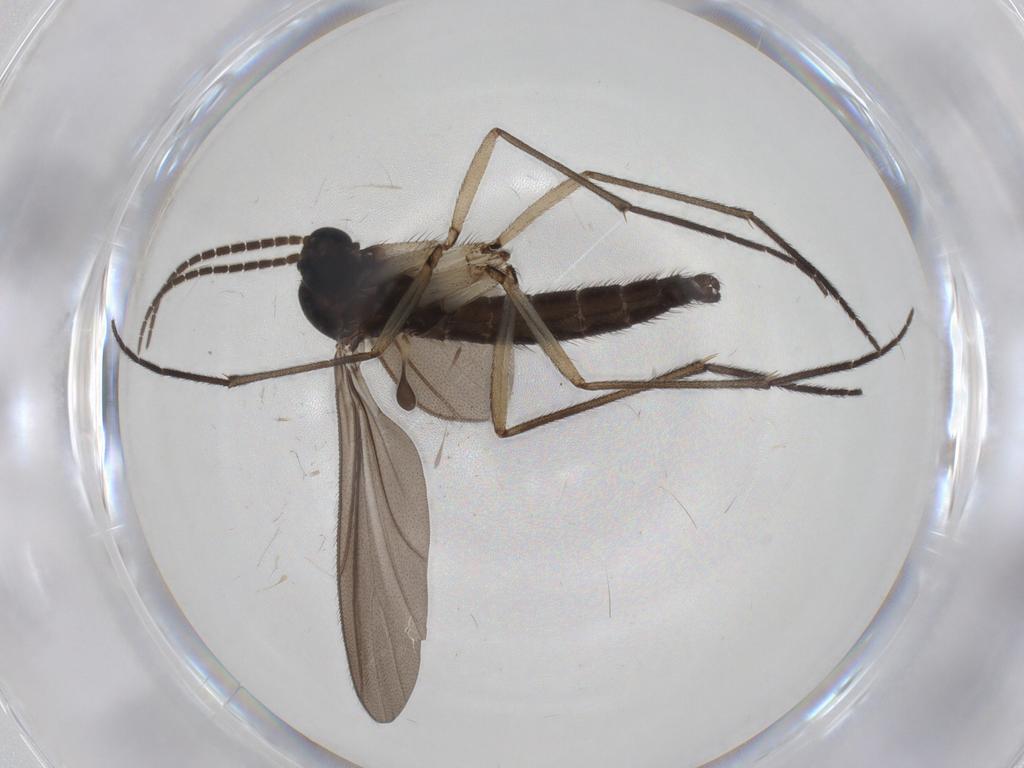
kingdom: Animalia
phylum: Arthropoda
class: Insecta
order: Diptera
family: Sciaridae
